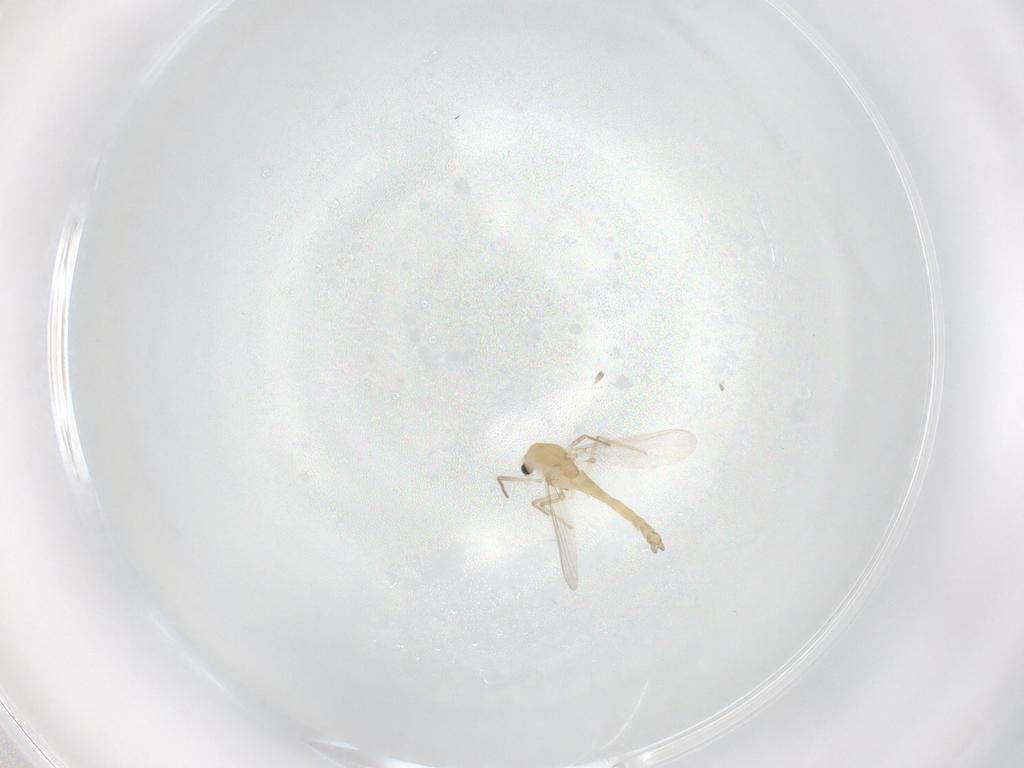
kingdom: Animalia
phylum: Arthropoda
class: Insecta
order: Diptera
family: Chironomidae
